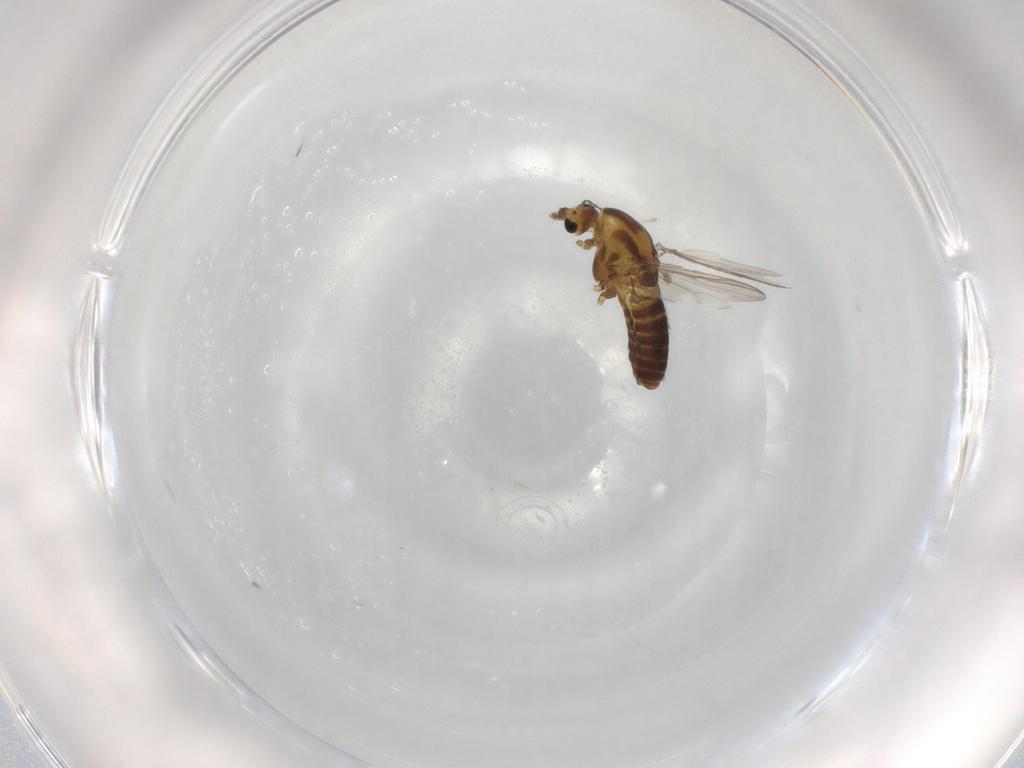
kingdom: Animalia
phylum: Arthropoda
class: Insecta
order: Diptera
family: Chironomidae
